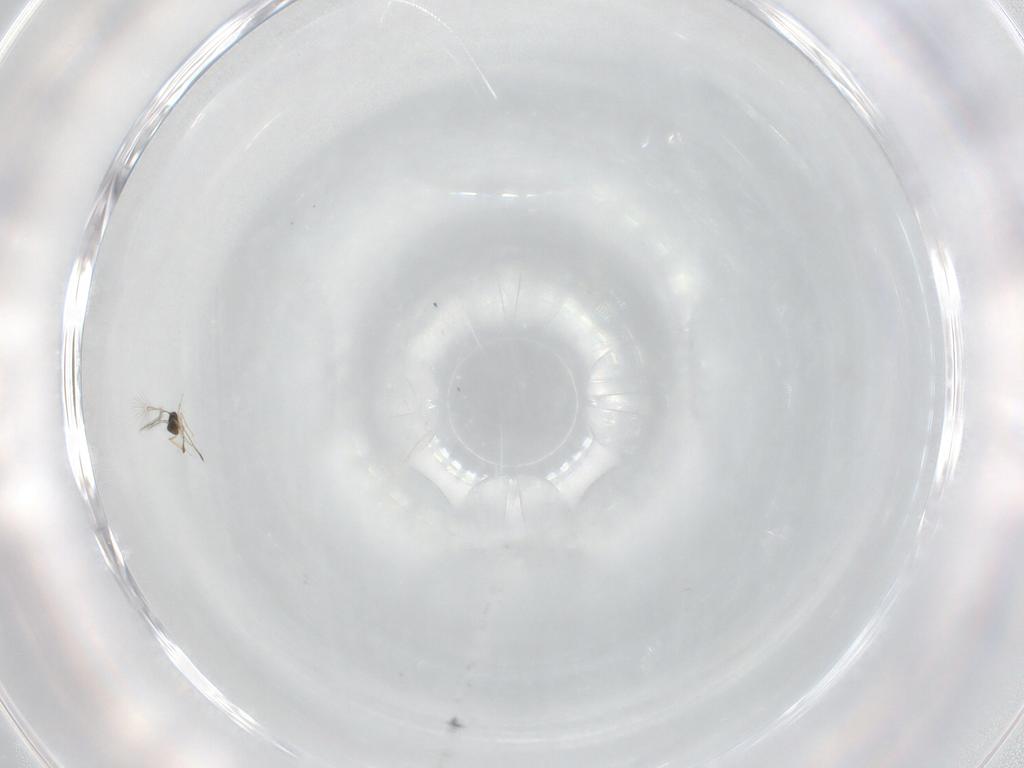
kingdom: Animalia
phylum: Arthropoda
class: Insecta
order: Hymenoptera
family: Mymaridae
